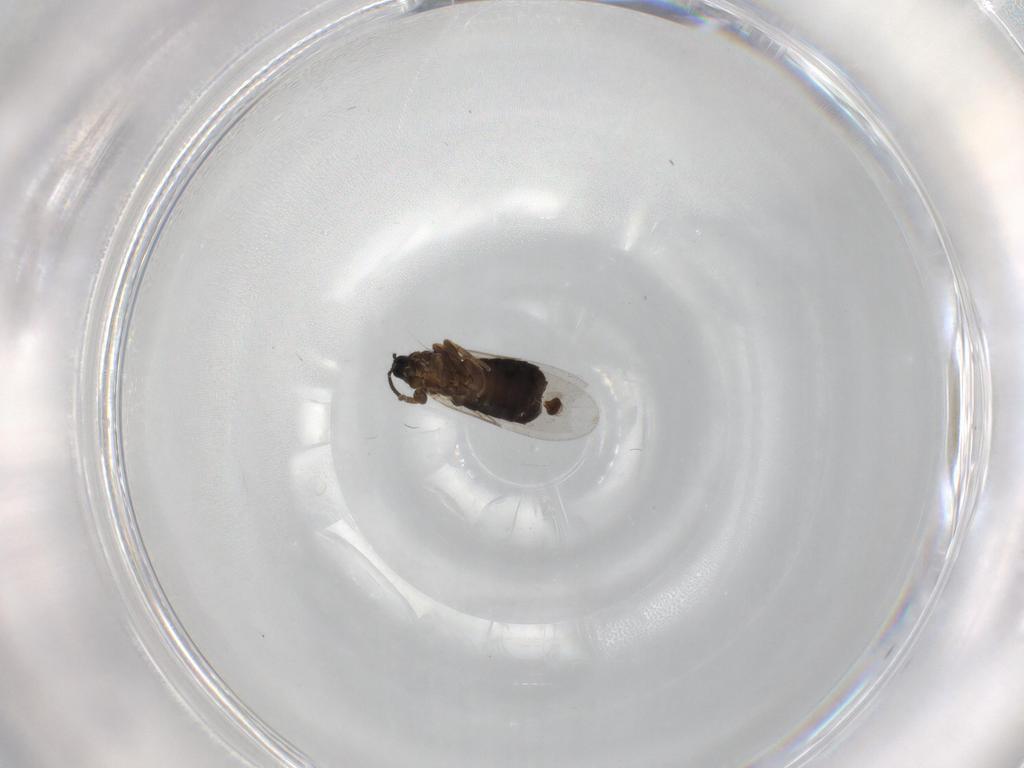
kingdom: Animalia
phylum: Arthropoda
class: Insecta
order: Diptera
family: Scatopsidae
